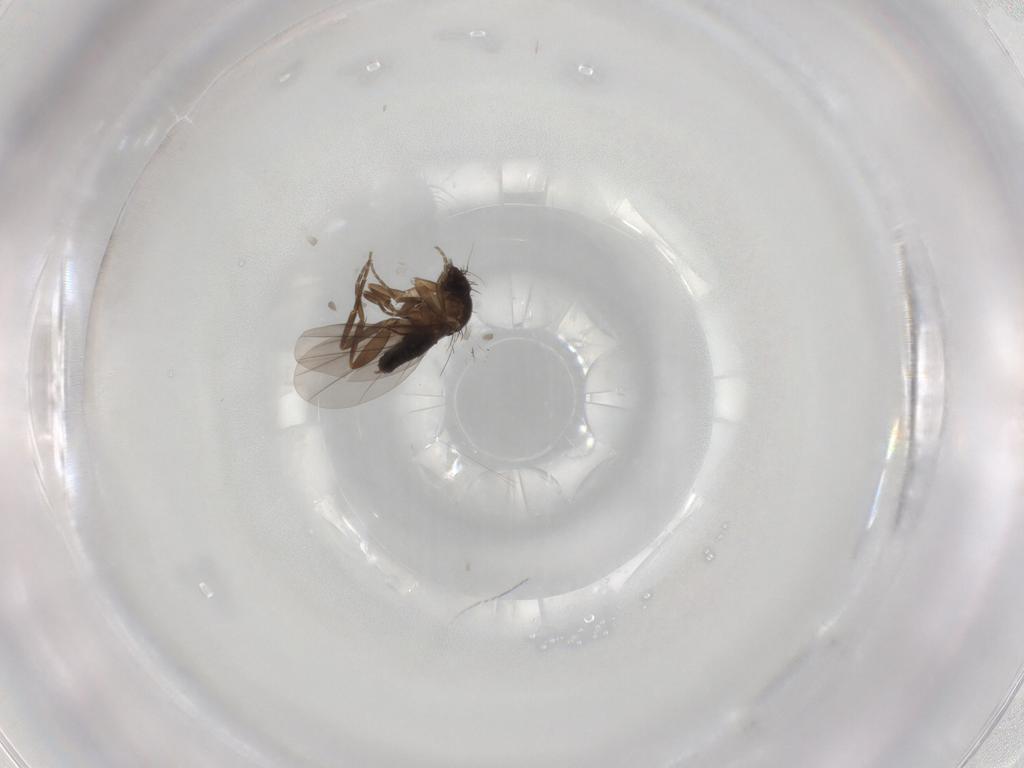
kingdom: Animalia
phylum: Arthropoda
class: Insecta
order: Diptera
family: Tachinidae
